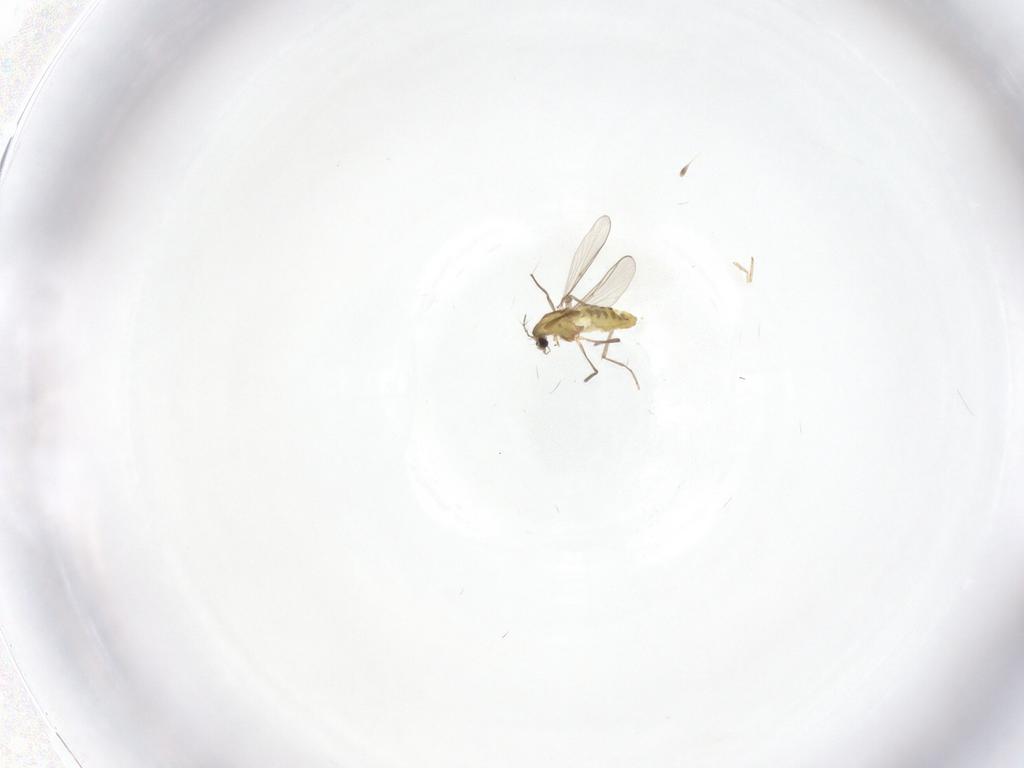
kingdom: Animalia
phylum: Arthropoda
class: Insecta
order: Diptera
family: Chironomidae
